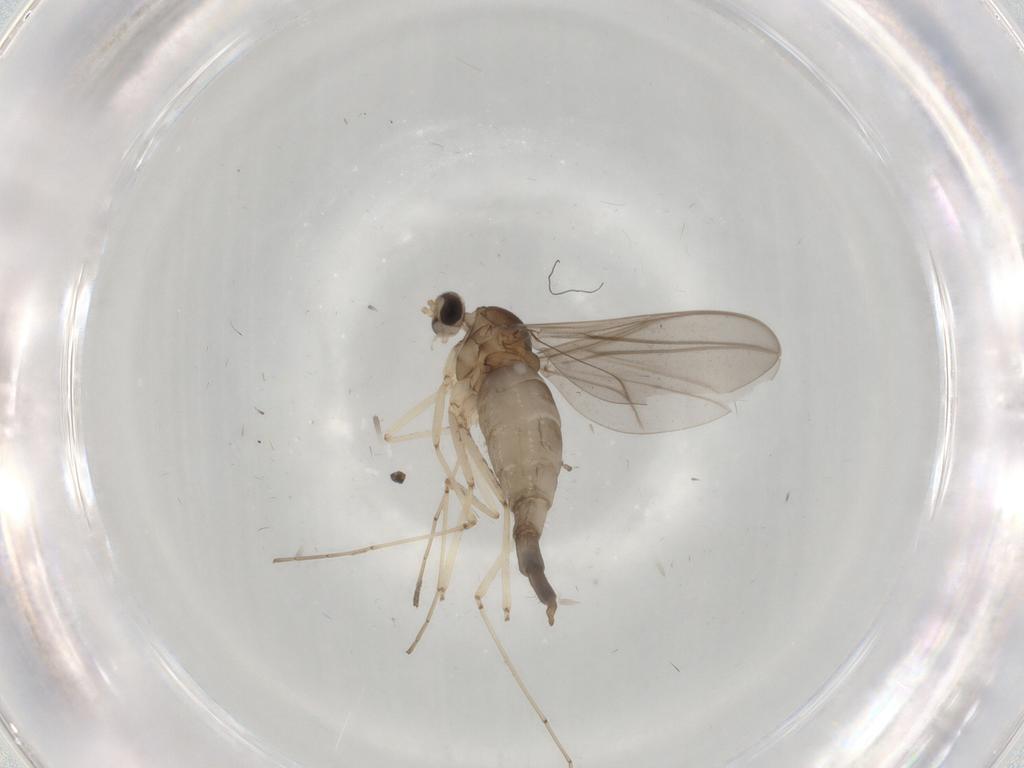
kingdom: Animalia
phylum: Arthropoda
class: Insecta
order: Diptera
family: Cecidomyiidae
